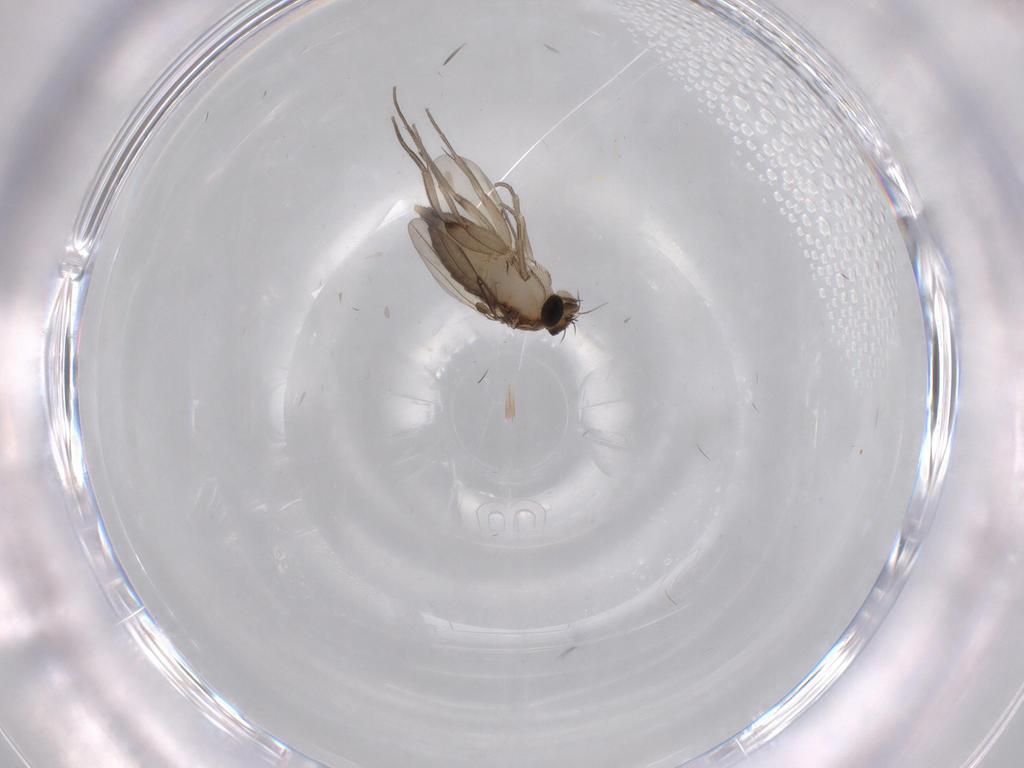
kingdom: Animalia
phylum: Arthropoda
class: Insecta
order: Diptera
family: Phoridae
